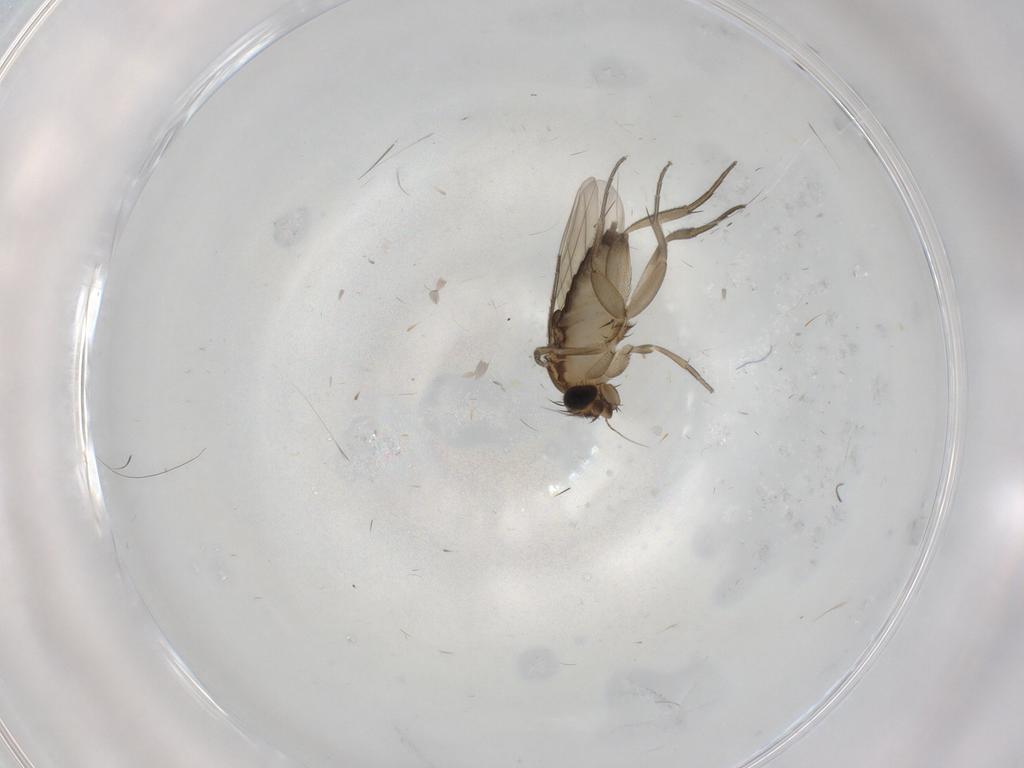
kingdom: Animalia
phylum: Arthropoda
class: Insecta
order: Diptera
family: Phoridae
